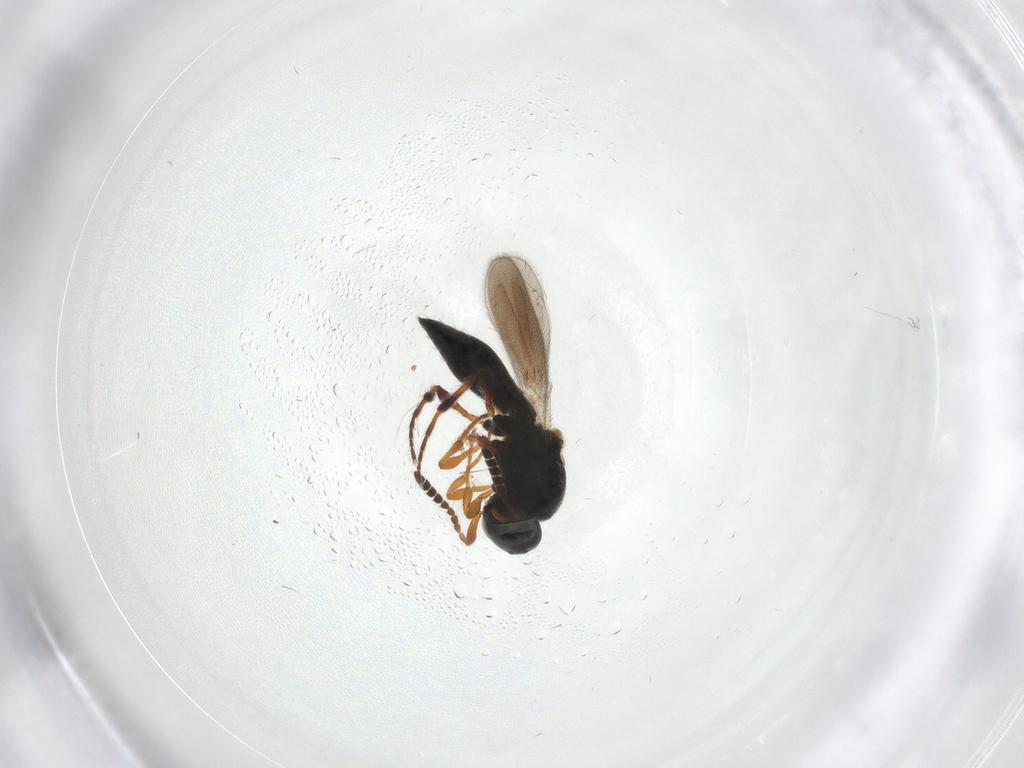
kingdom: Animalia
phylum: Arthropoda
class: Insecta
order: Hymenoptera
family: Platygastridae
